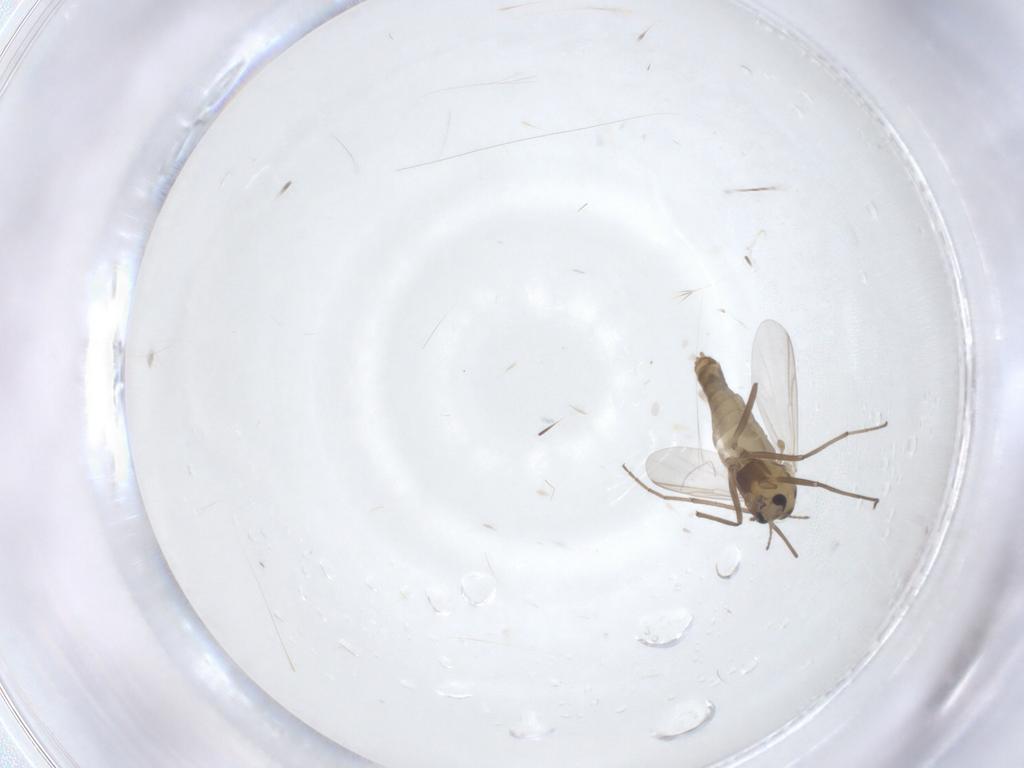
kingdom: Animalia
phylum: Arthropoda
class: Insecta
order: Diptera
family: Chironomidae
